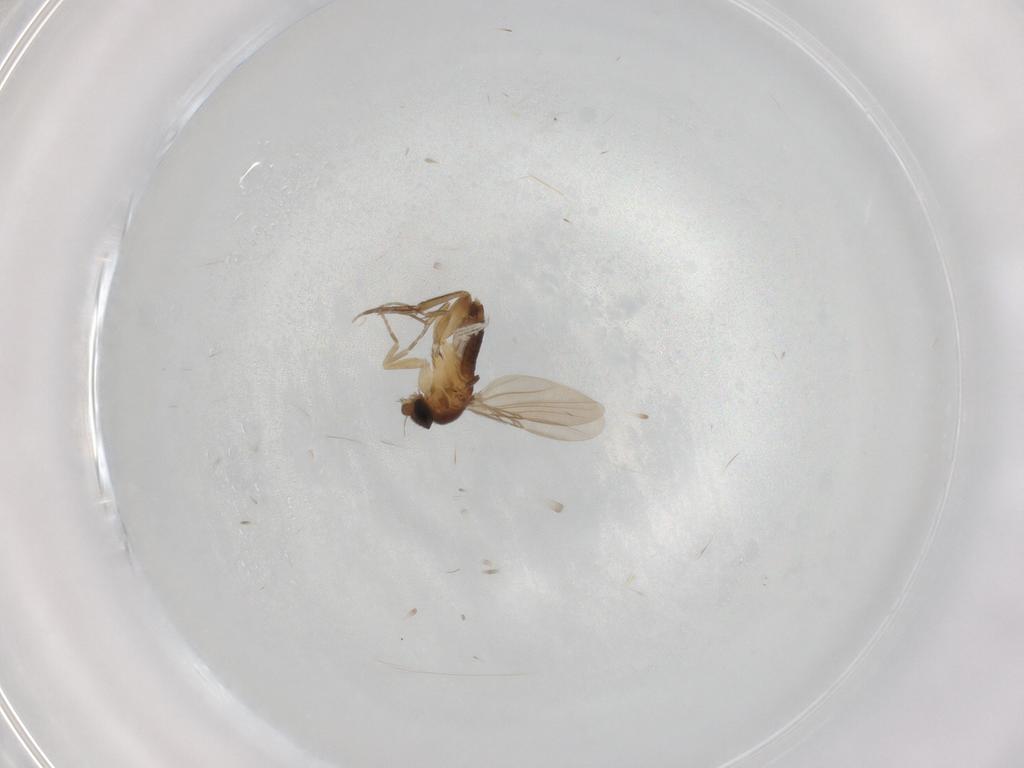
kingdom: Animalia
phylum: Arthropoda
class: Insecta
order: Diptera
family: Phoridae
